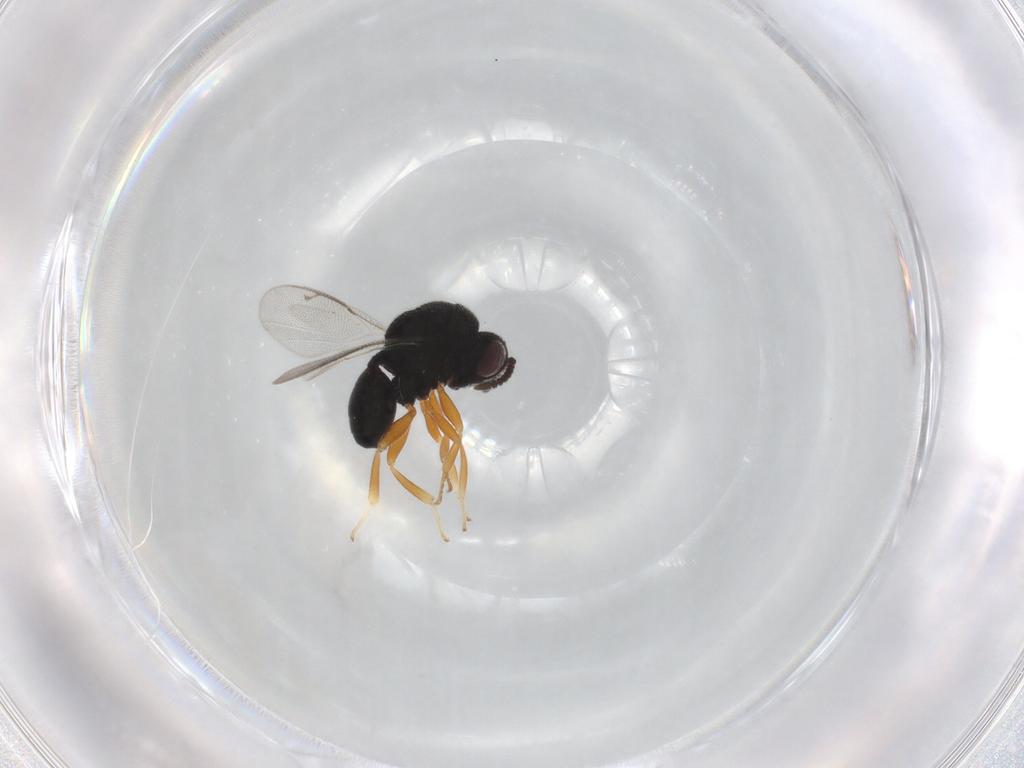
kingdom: Animalia
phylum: Arthropoda
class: Insecta
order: Hymenoptera
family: Eurytomidae
